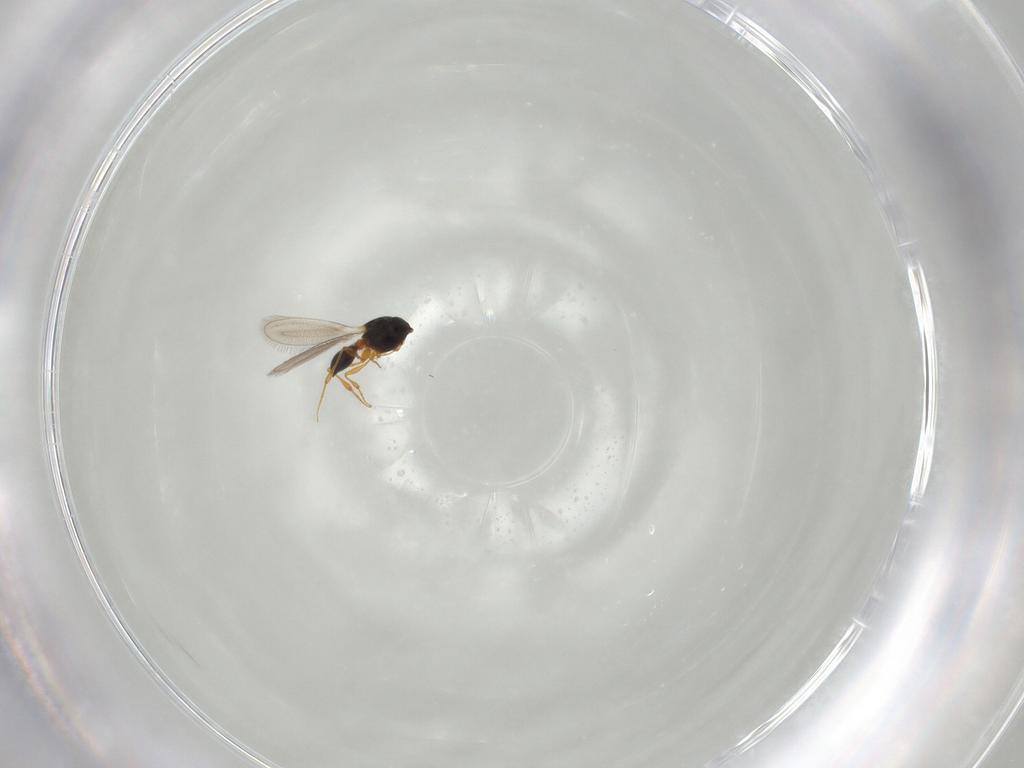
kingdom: Animalia
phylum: Arthropoda
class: Insecta
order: Hymenoptera
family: Platygastridae
